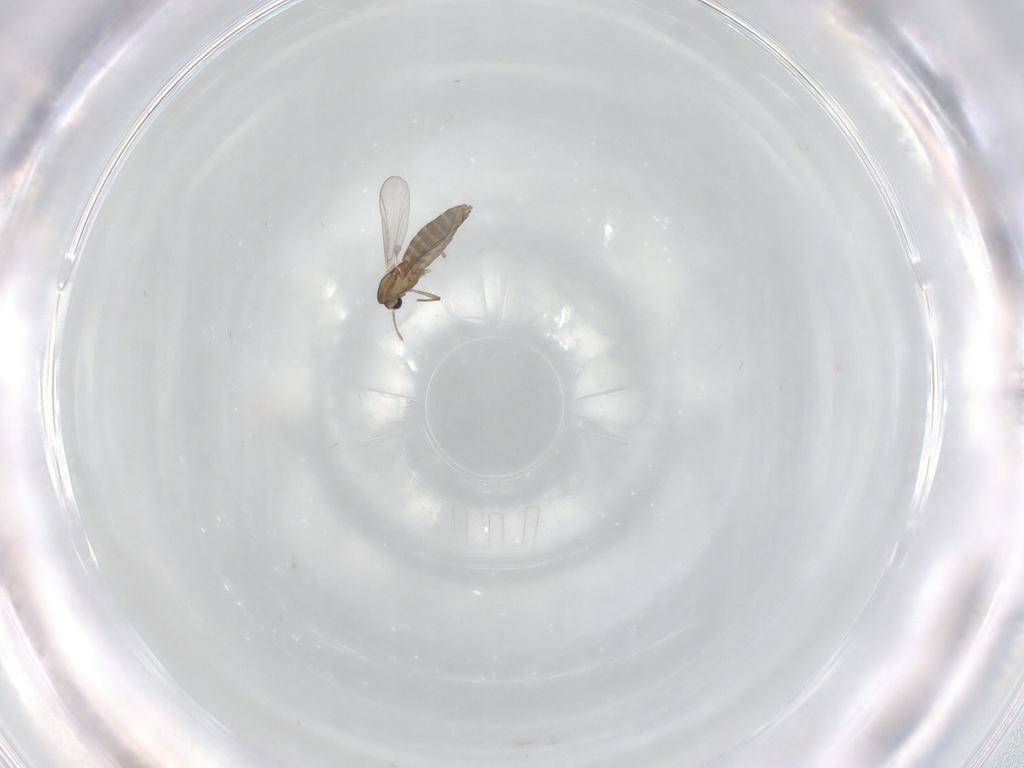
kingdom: Animalia
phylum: Arthropoda
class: Insecta
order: Diptera
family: Chironomidae
